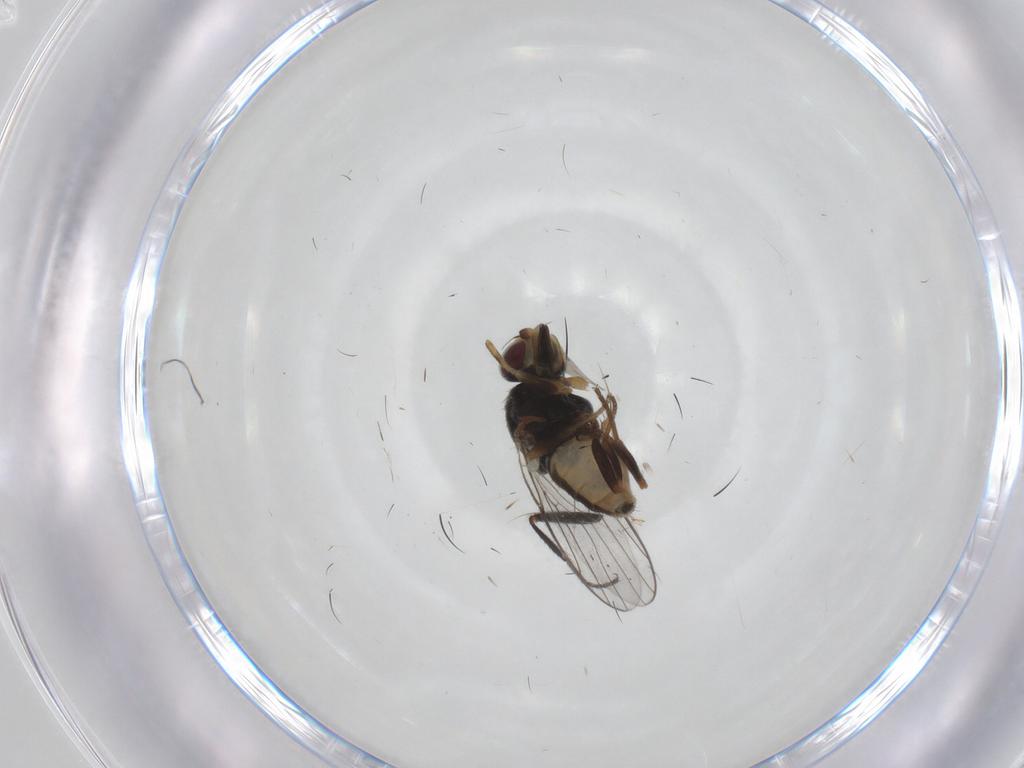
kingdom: Animalia
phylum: Arthropoda
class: Insecta
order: Diptera
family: Chloropidae
